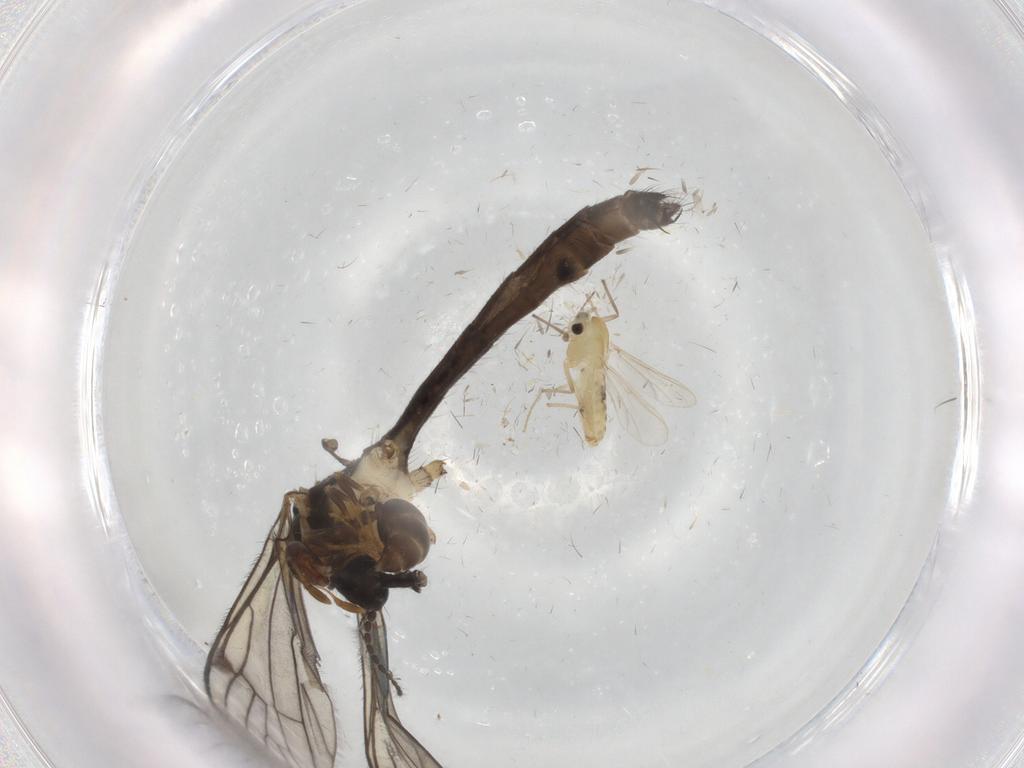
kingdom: Animalia
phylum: Arthropoda
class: Insecta
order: Diptera
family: Limoniidae
